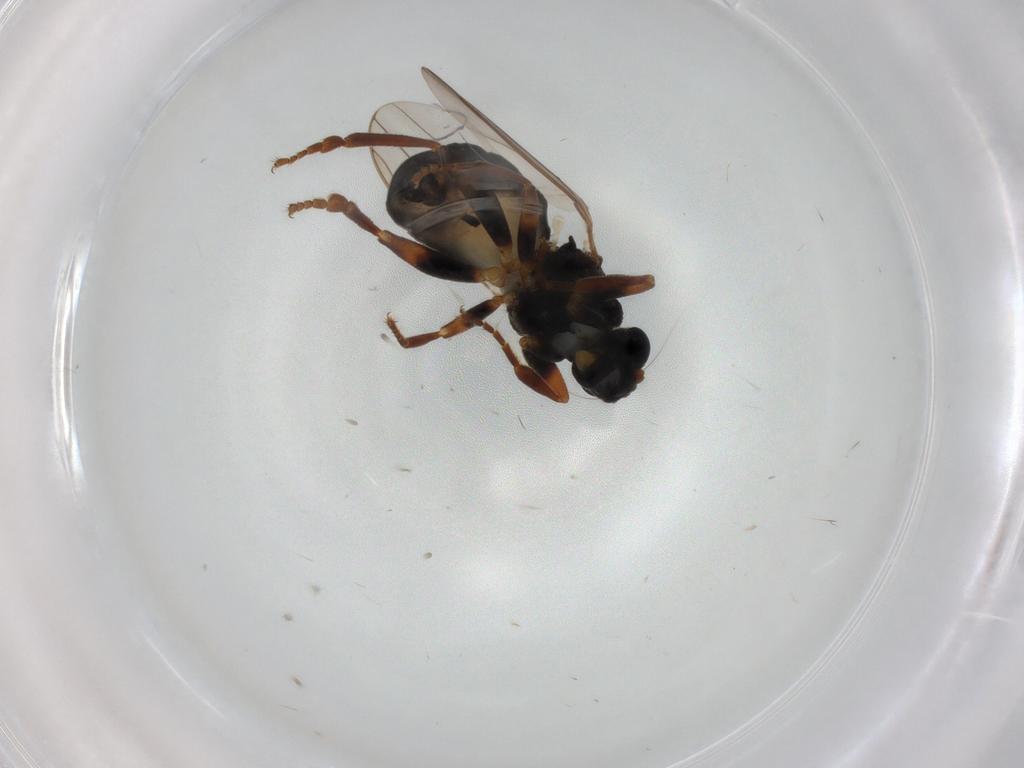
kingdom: Animalia
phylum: Arthropoda
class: Insecta
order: Diptera
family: Sphaeroceridae
